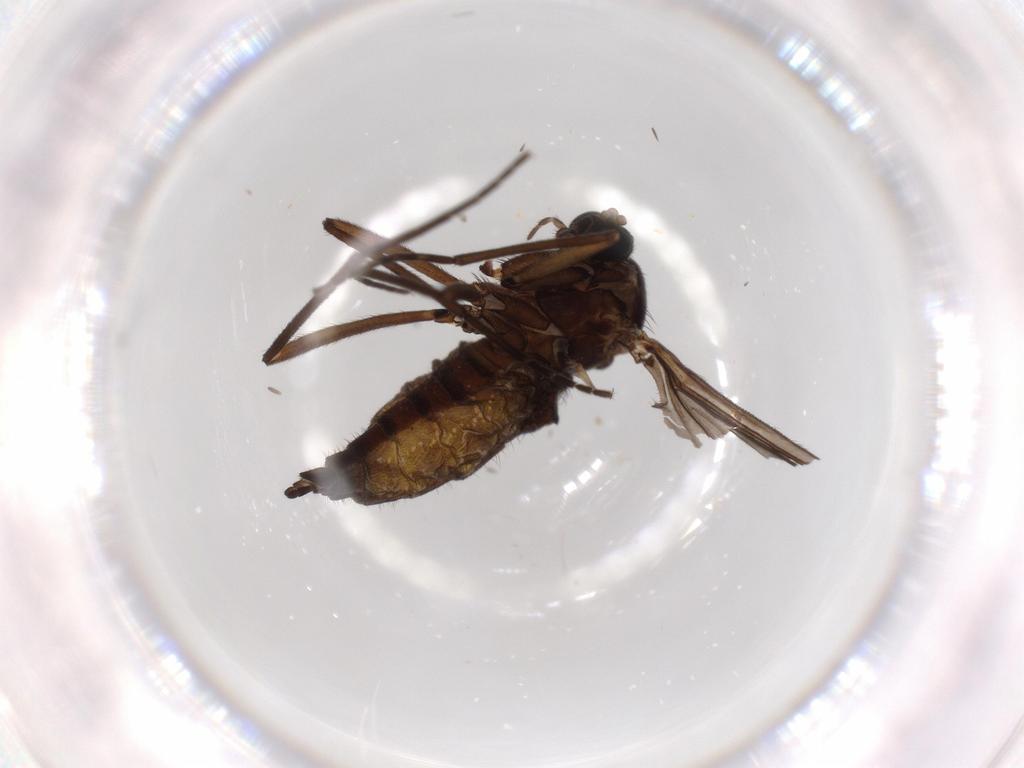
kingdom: Animalia
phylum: Arthropoda
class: Insecta
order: Diptera
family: Sciaridae
